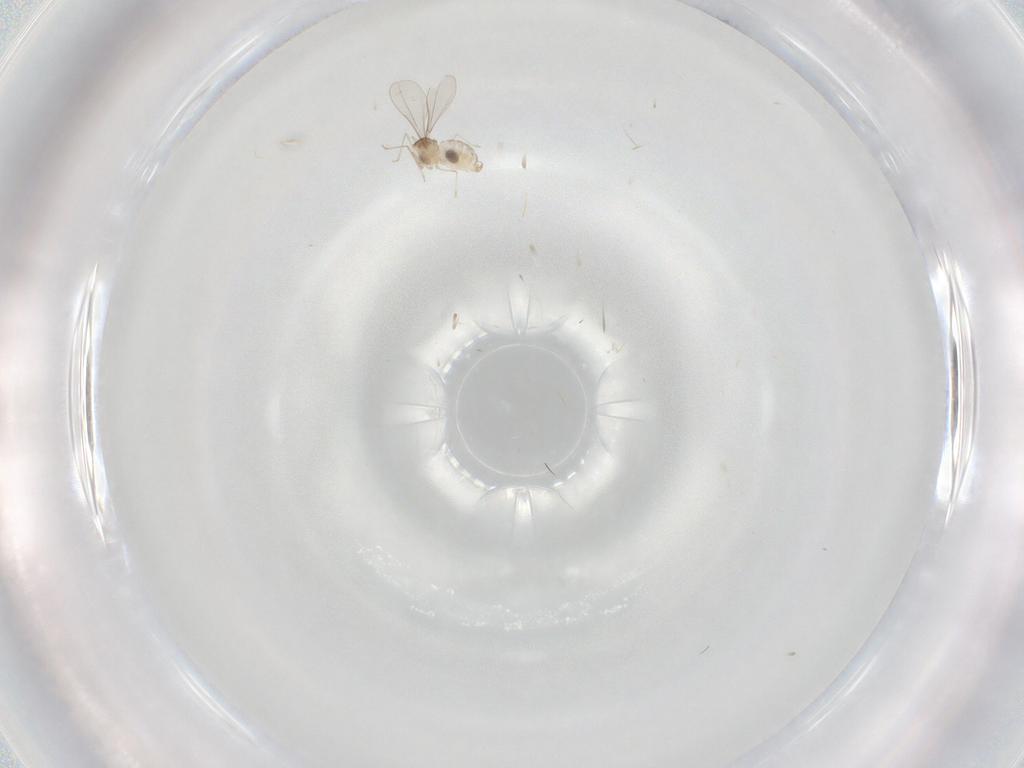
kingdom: Animalia
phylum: Arthropoda
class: Insecta
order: Diptera
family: Cecidomyiidae
